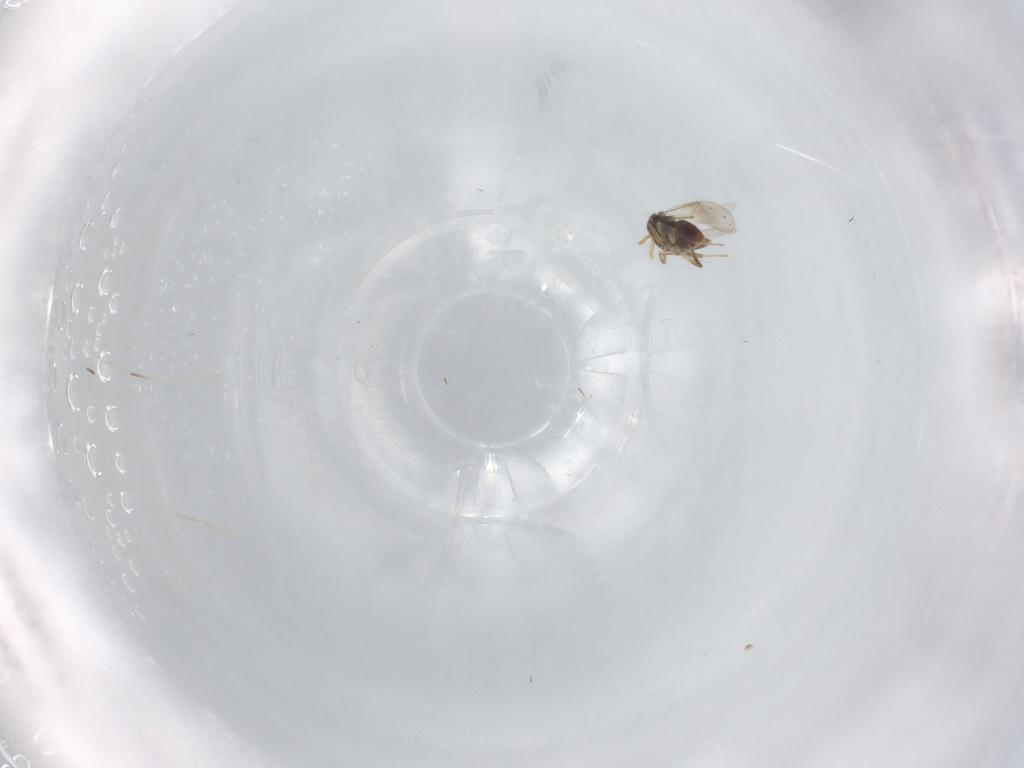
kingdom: Animalia
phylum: Arthropoda
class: Insecta
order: Hymenoptera
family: Aphelinidae
